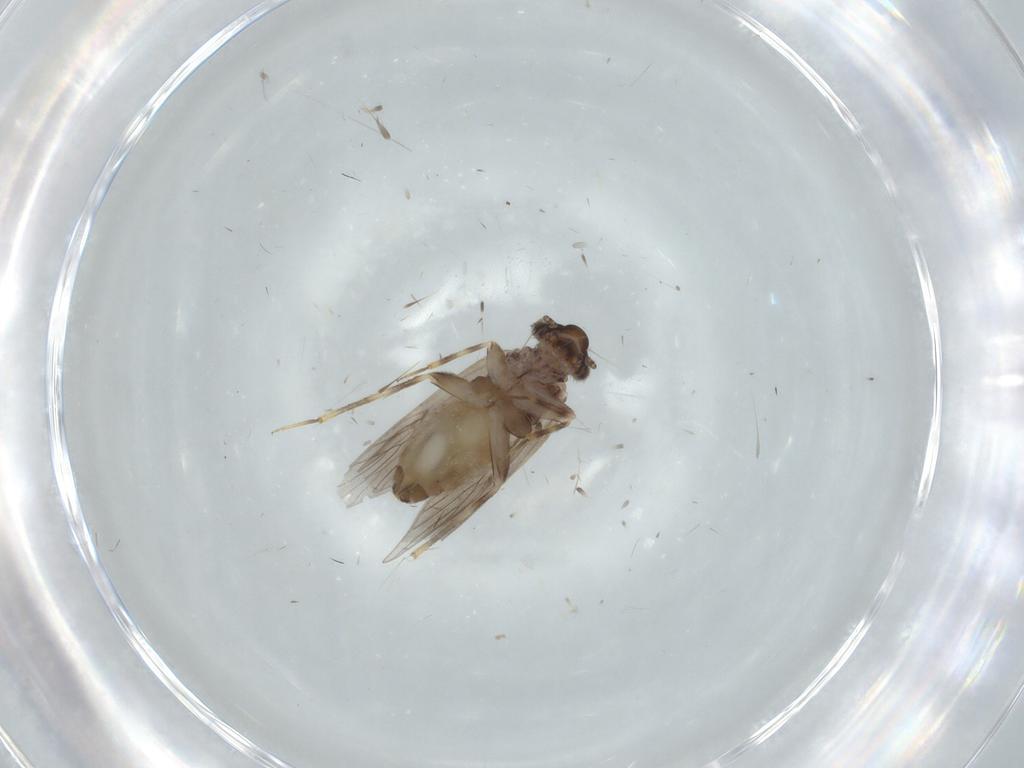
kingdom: Animalia
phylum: Arthropoda
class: Insecta
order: Psocodea
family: Lepidopsocidae
